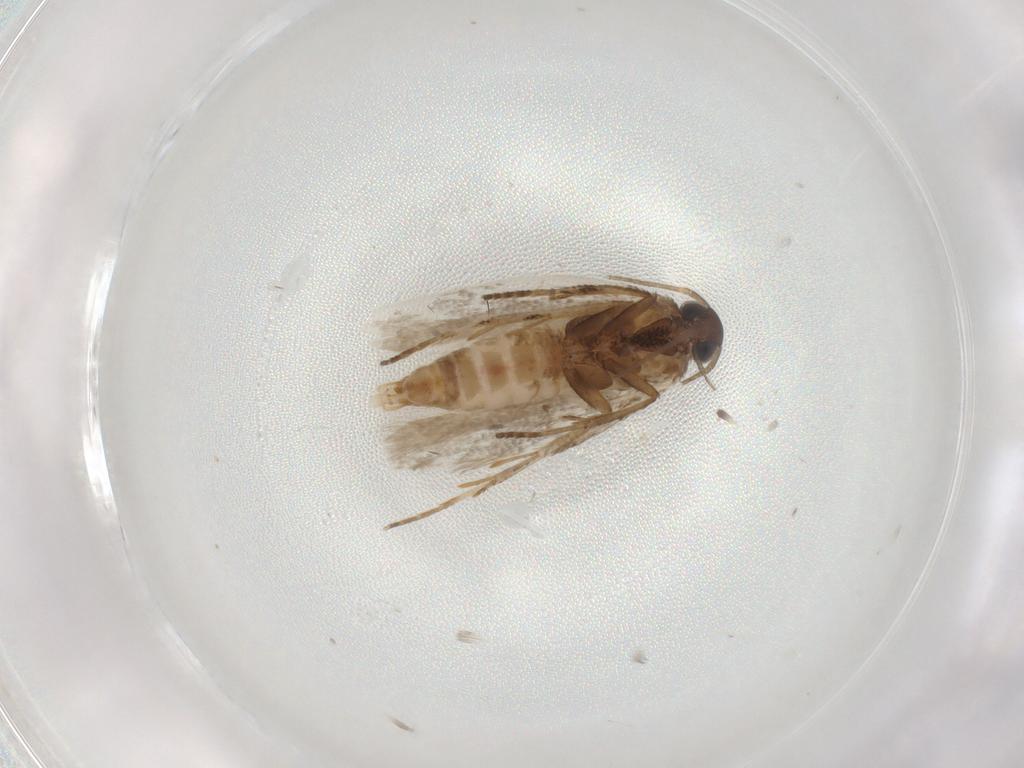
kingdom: Animalia
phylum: Arthropoda
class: Insecta
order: Lepidoptera
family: Gelechiidae
